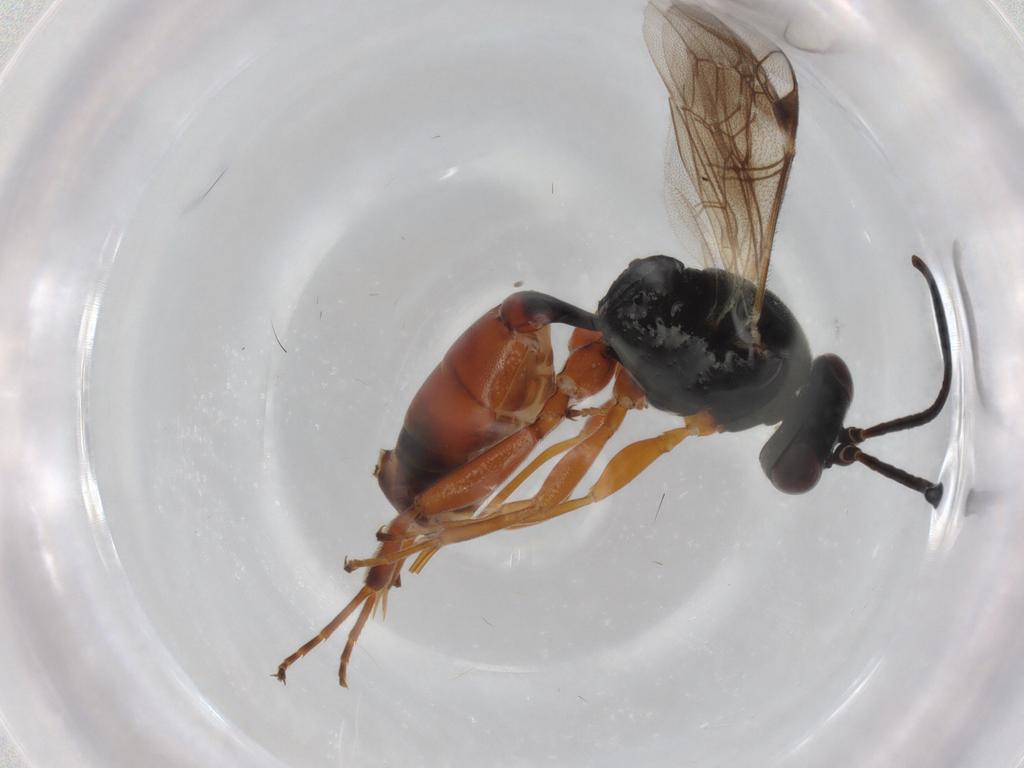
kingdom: Animalia
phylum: Arthropoda
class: Insecta
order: Hymenoptera
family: Ichneumonidae
